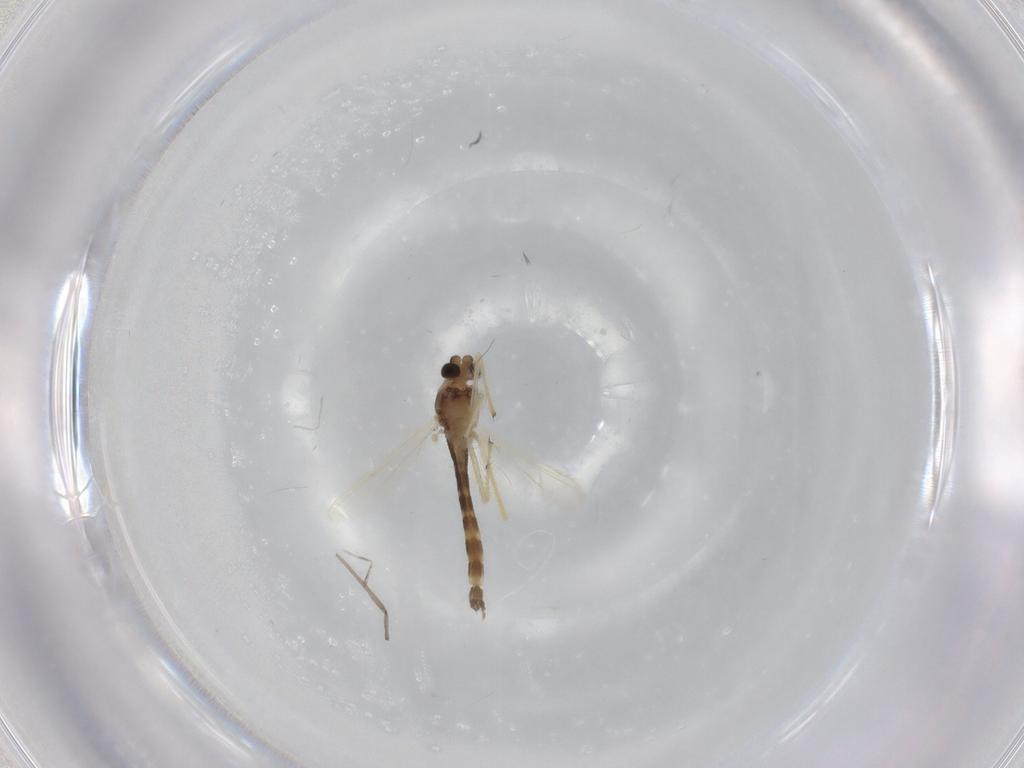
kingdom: Animalia
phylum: Arthropoda
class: Insecta
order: Diptera
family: Chironomidae
